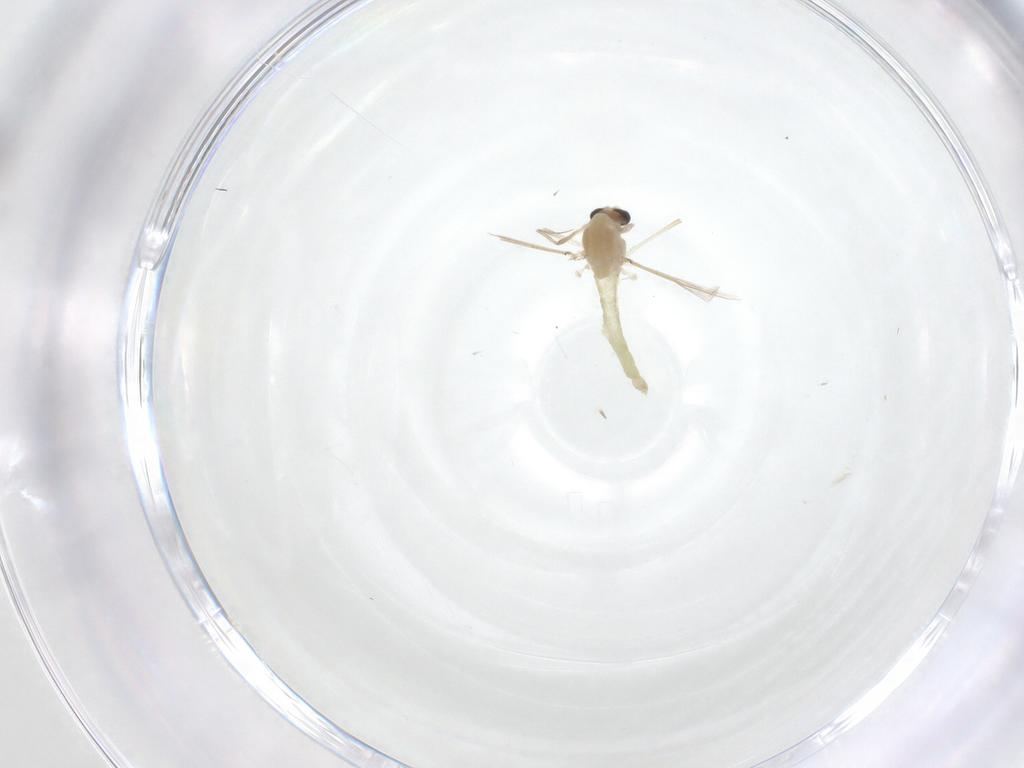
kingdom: Animalia
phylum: Arthropoda
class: Insecta
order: Diptera
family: Chironomidae
